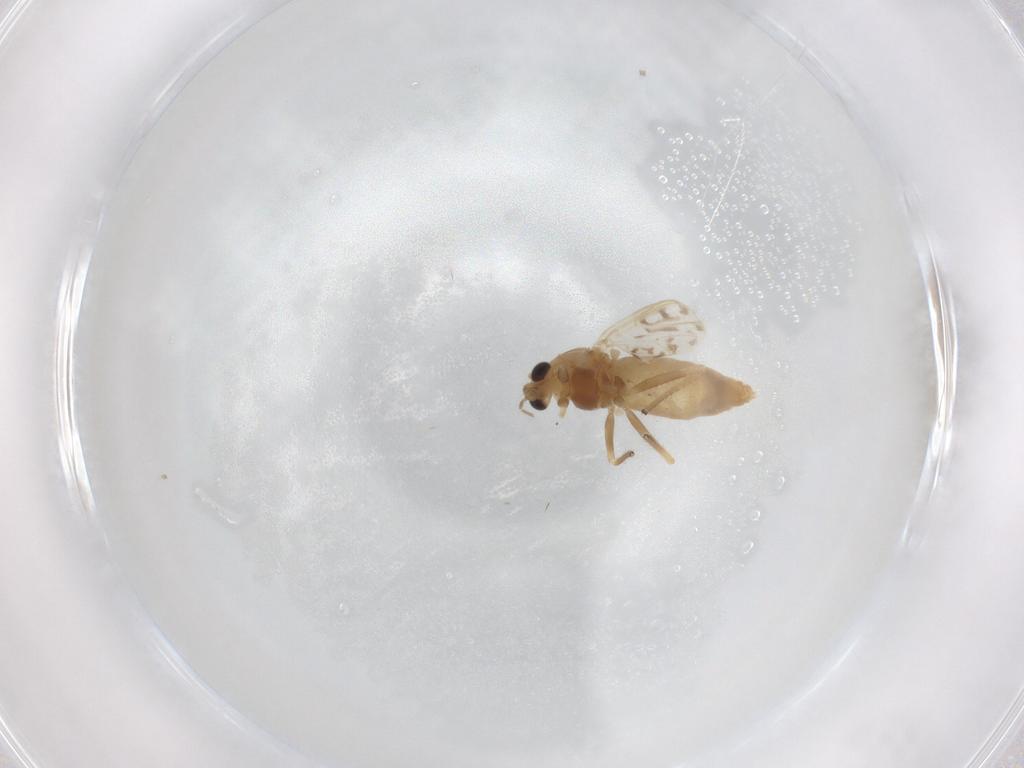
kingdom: Animalia
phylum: Arthropoda
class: Insecta
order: Diptera
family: Chironomidae
